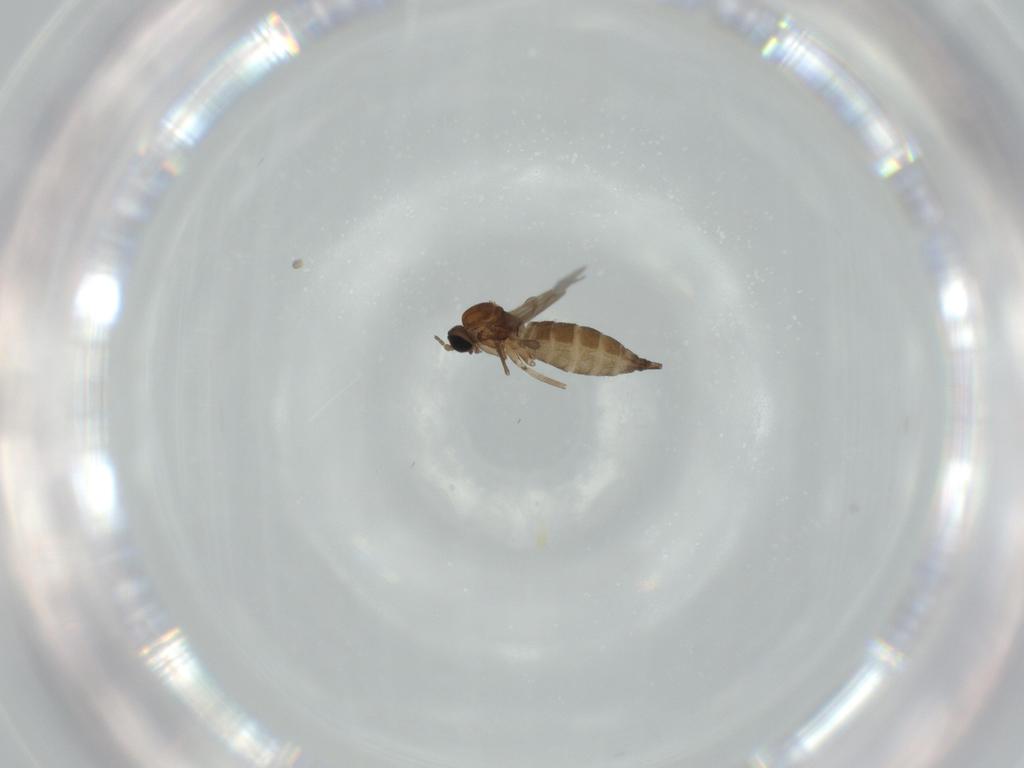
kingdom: Animalia
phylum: Arthropoda
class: Insecta
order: Diptera
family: Sciaridae
